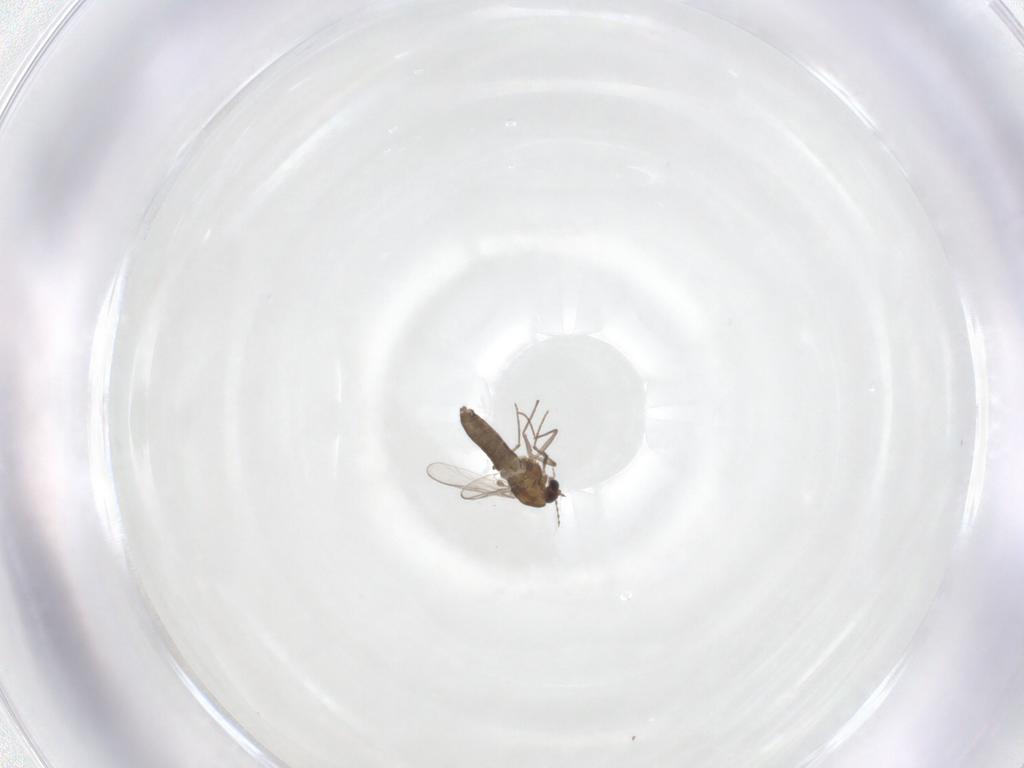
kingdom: Animalia
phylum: Arthropoda
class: Insecta
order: Diptera
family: Chironomidae
